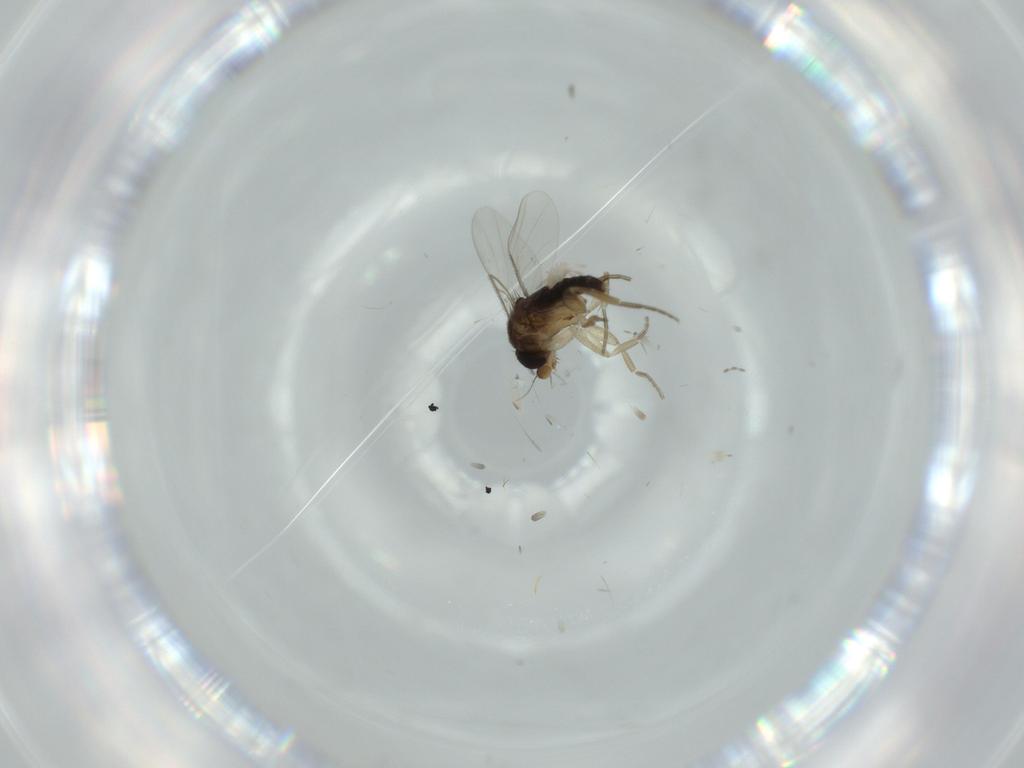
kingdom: Animalia
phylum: Arthropoda
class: Insecta
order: Diptera
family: Phoridae
